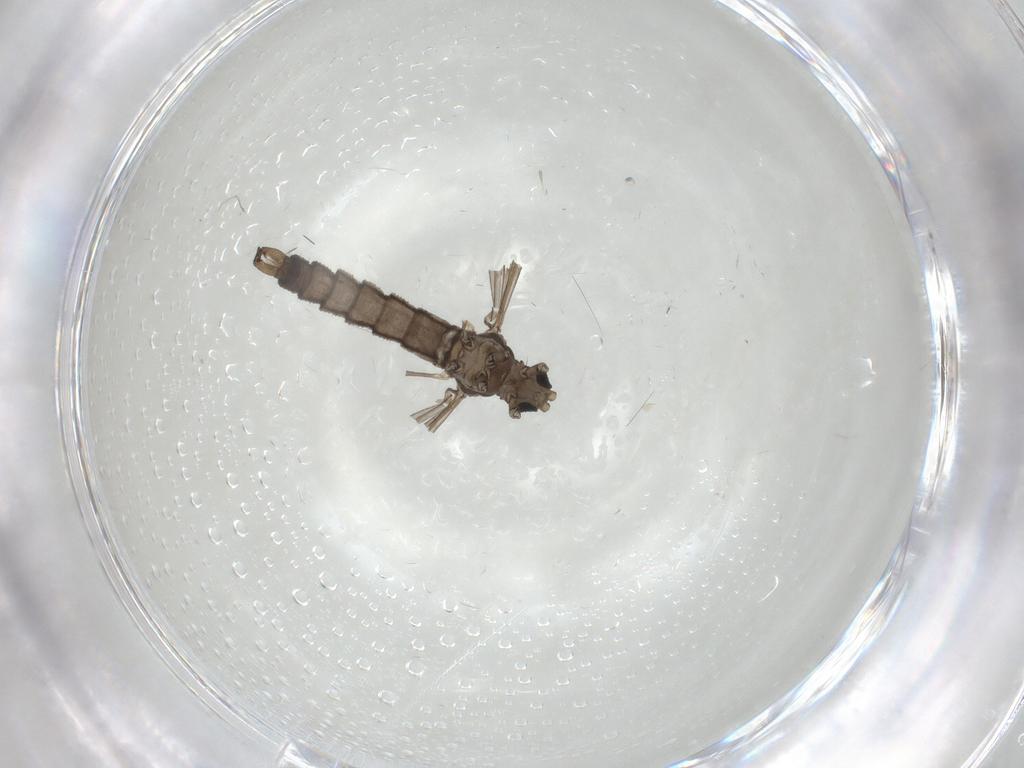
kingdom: Animalia
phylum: Arthropoda
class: Insecta
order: Diptera
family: Cecidomyiidae
